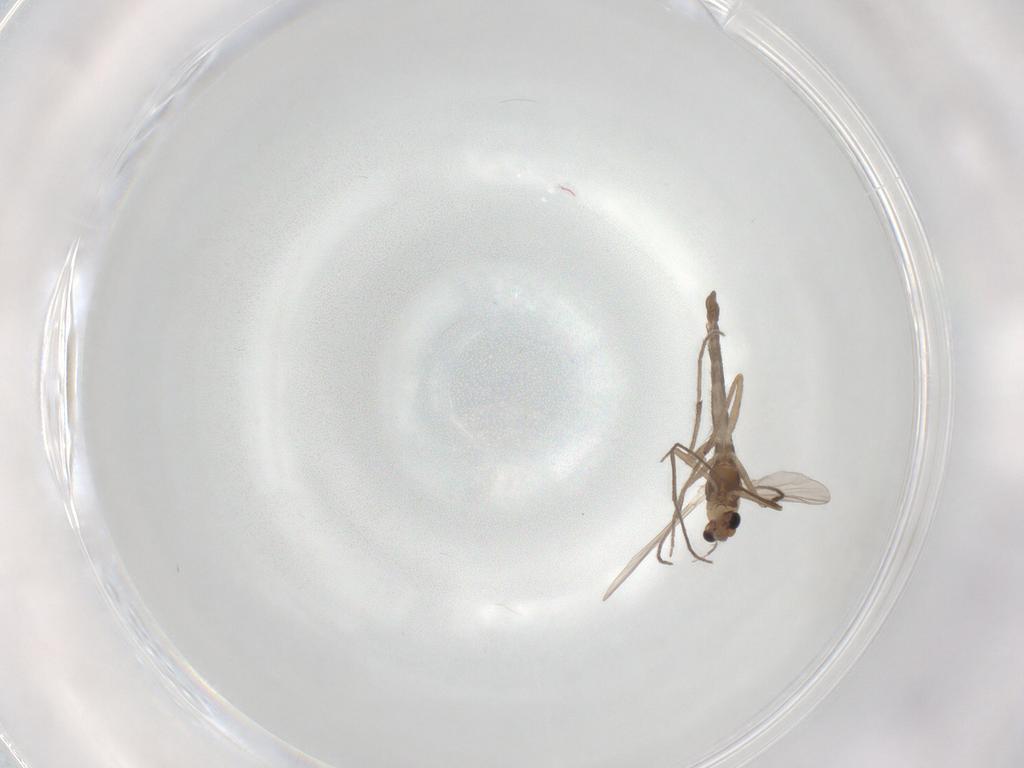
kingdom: Animalia
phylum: Arthropoda
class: Insecta
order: Diptera
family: Chironomidae
